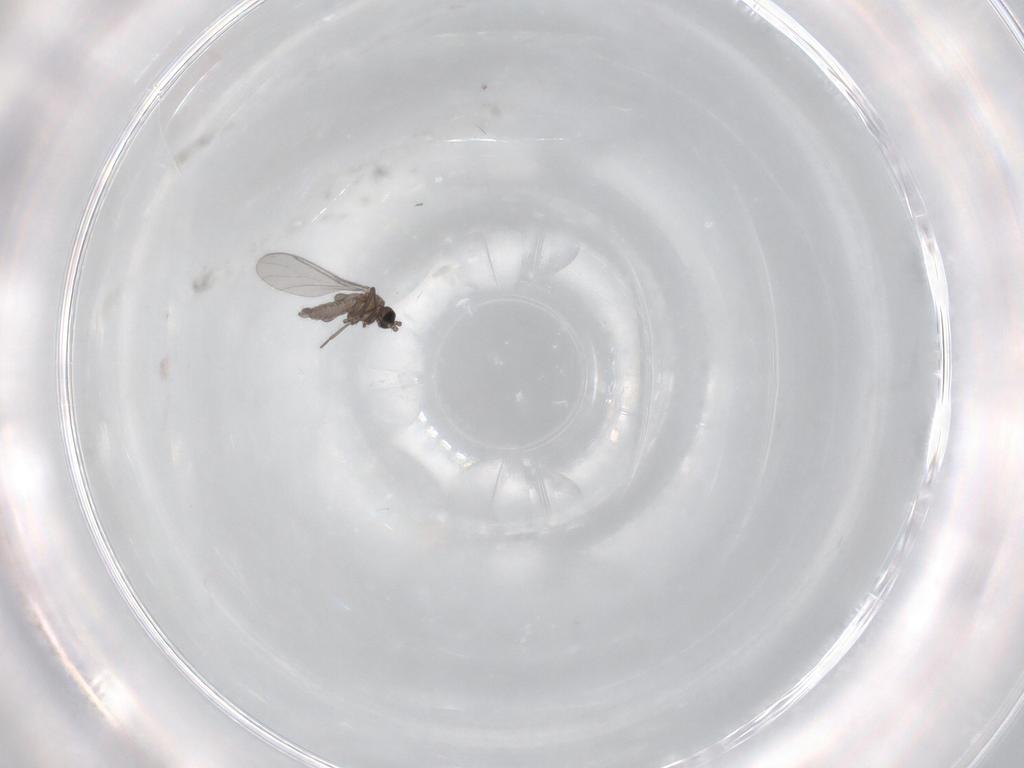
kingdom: Animalia
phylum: Arthropoda
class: Insecta
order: Diptera
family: Sciaridae
